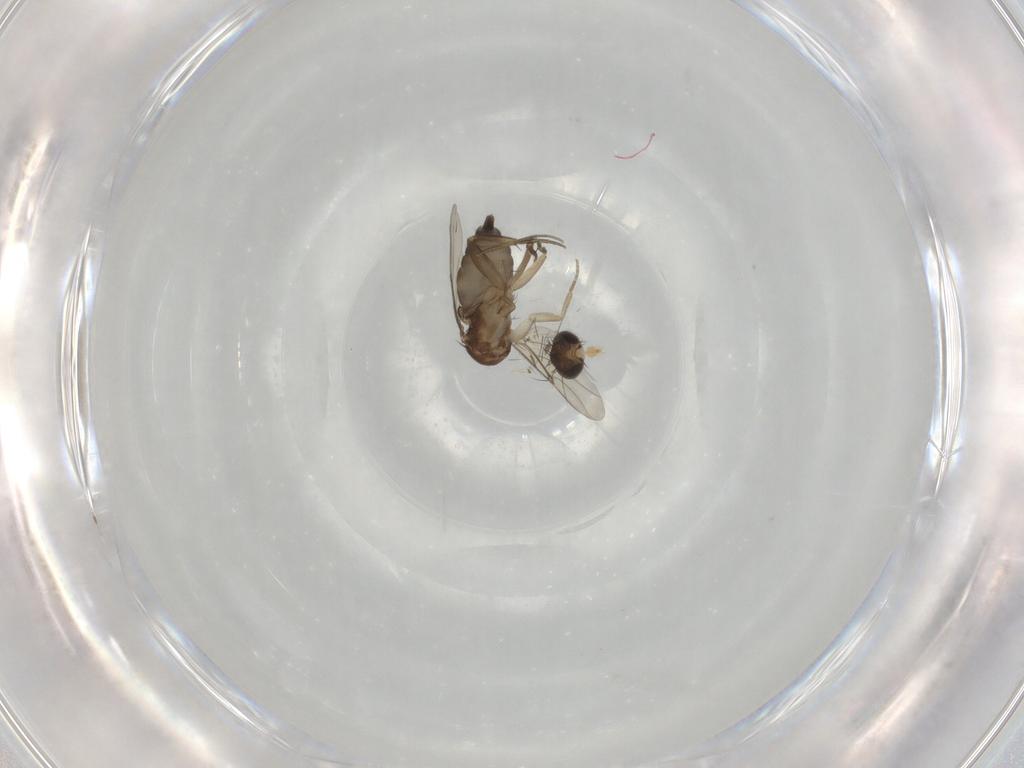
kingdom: Animalia
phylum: Arthropoda
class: Insecta
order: Diptera
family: Phoridae
